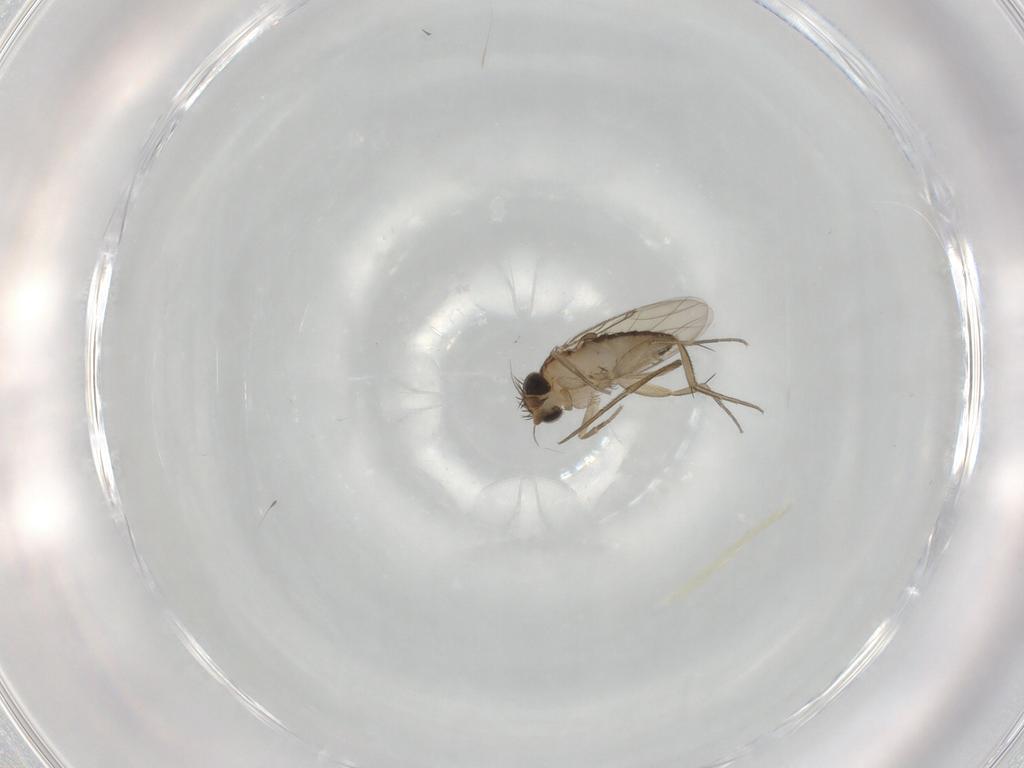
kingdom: Animalia
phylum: Arthropoda
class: Insecta
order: Diptera
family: Phoridae
